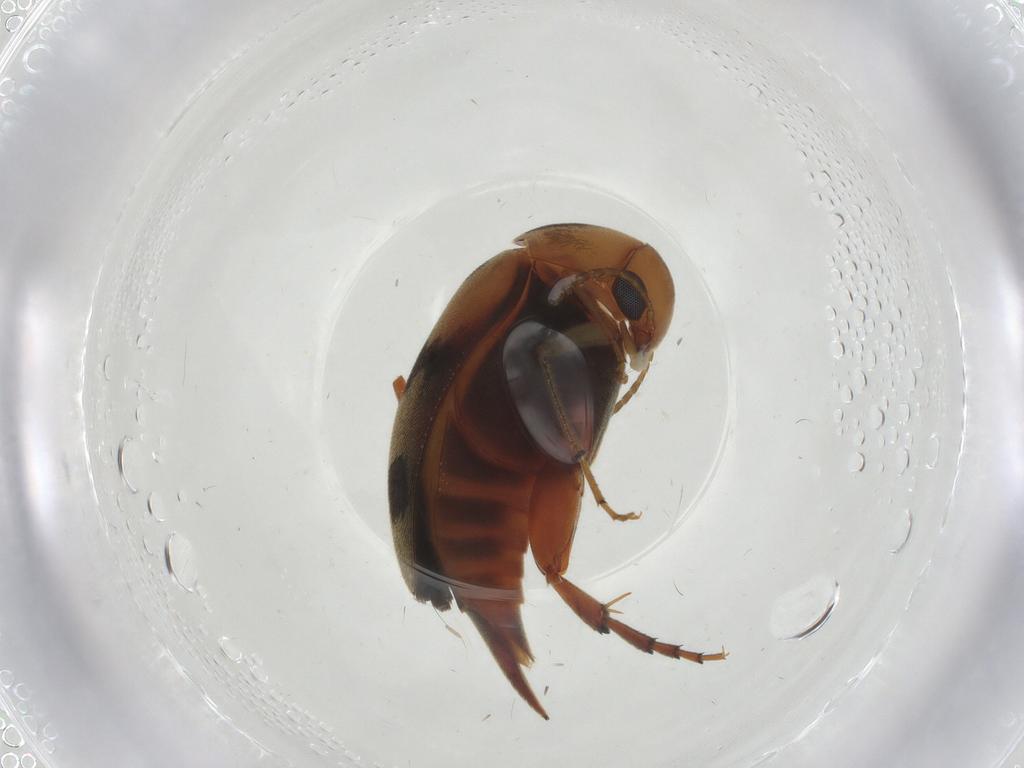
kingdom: Animalia
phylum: Arthropoda
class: Insecta
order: Coleoptera
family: Mordellidae
